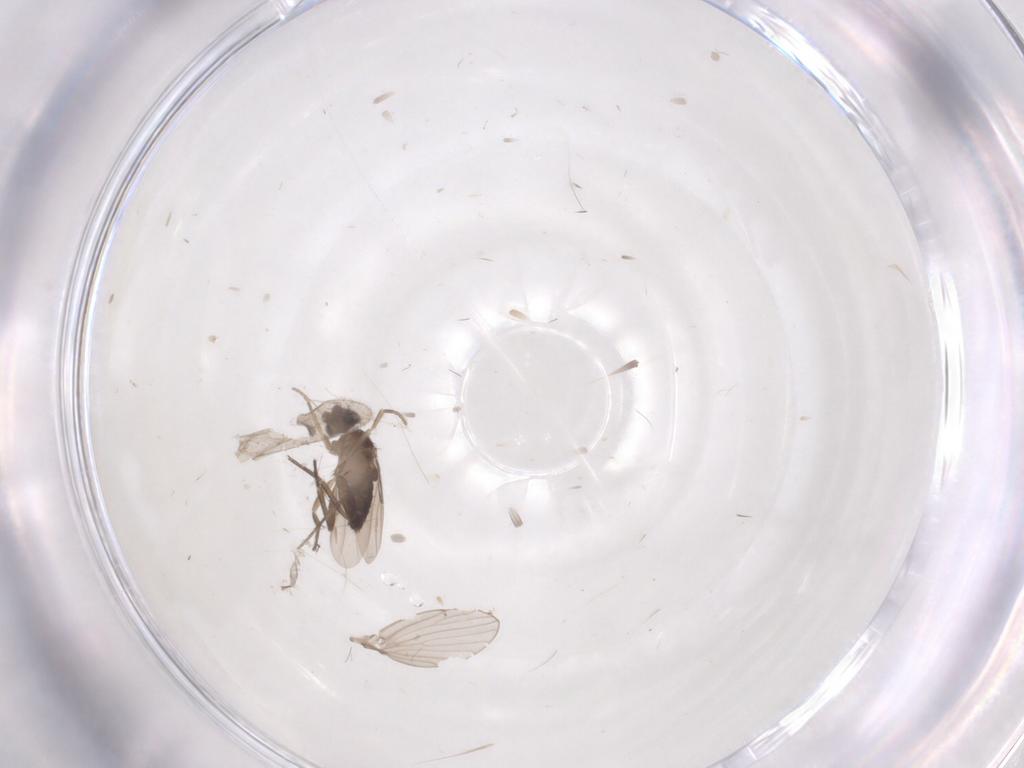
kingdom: Animalia
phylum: Arthropoda
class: Insecta
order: Diptera
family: Phoridae
